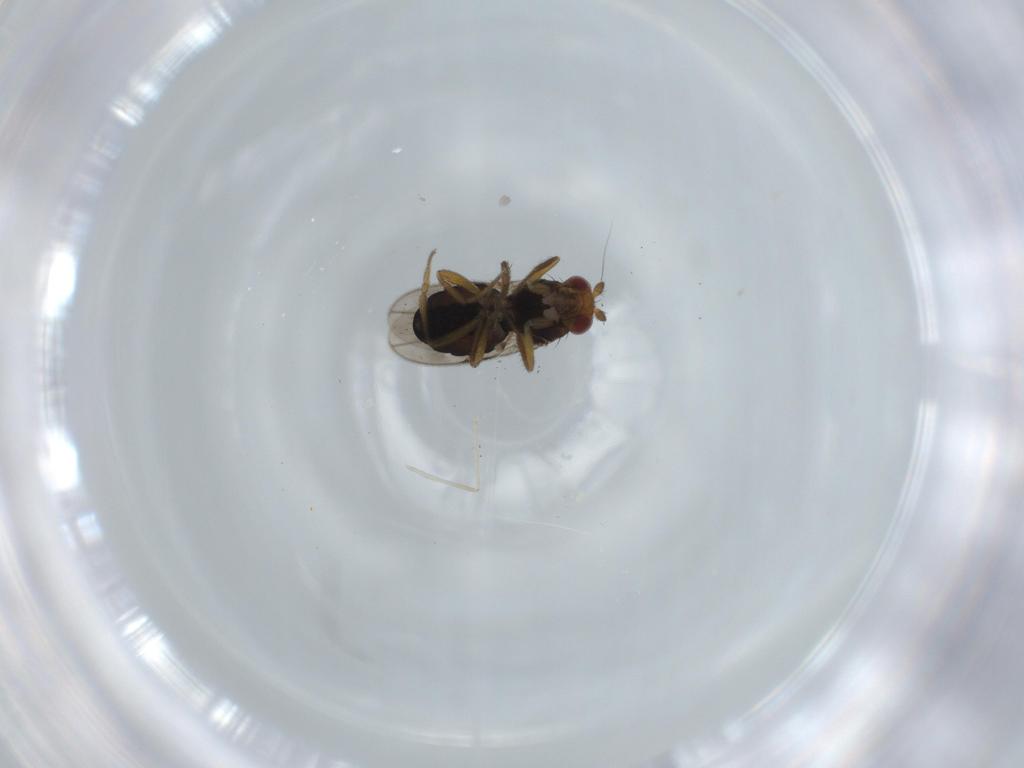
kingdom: Animalia
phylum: Arthropoda
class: Insecta
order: Diptera
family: Sphaeroceridae
